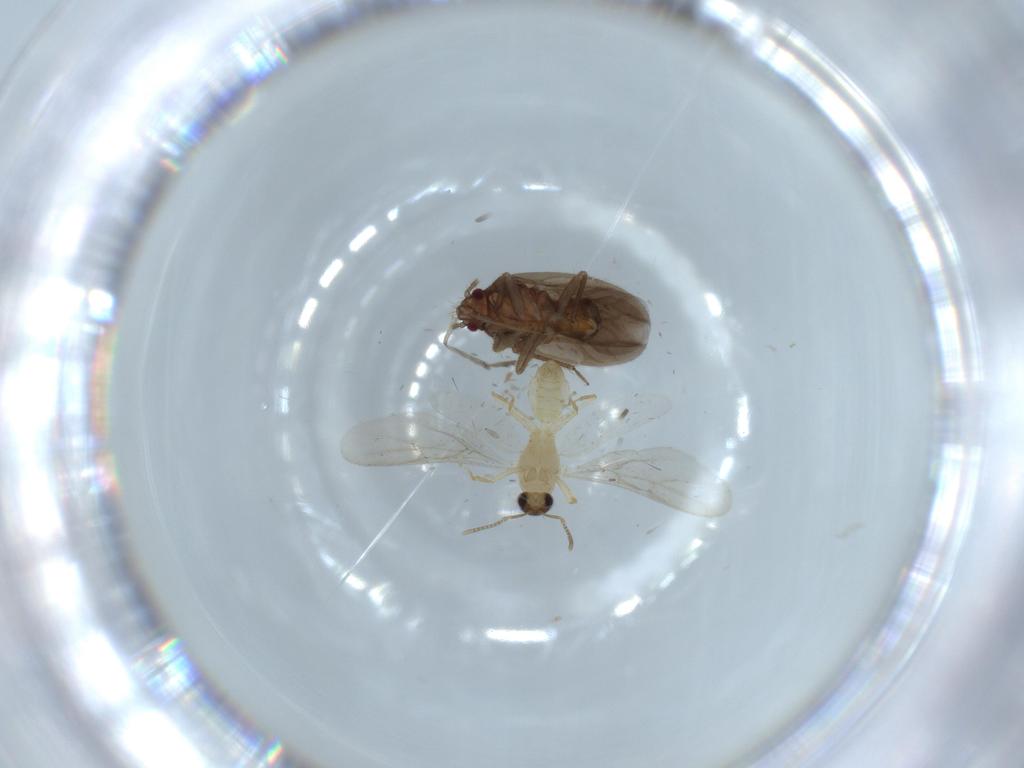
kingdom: Animalia
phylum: Arthropoda
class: Insecta
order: Hemiptera
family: Ceratocombidae
